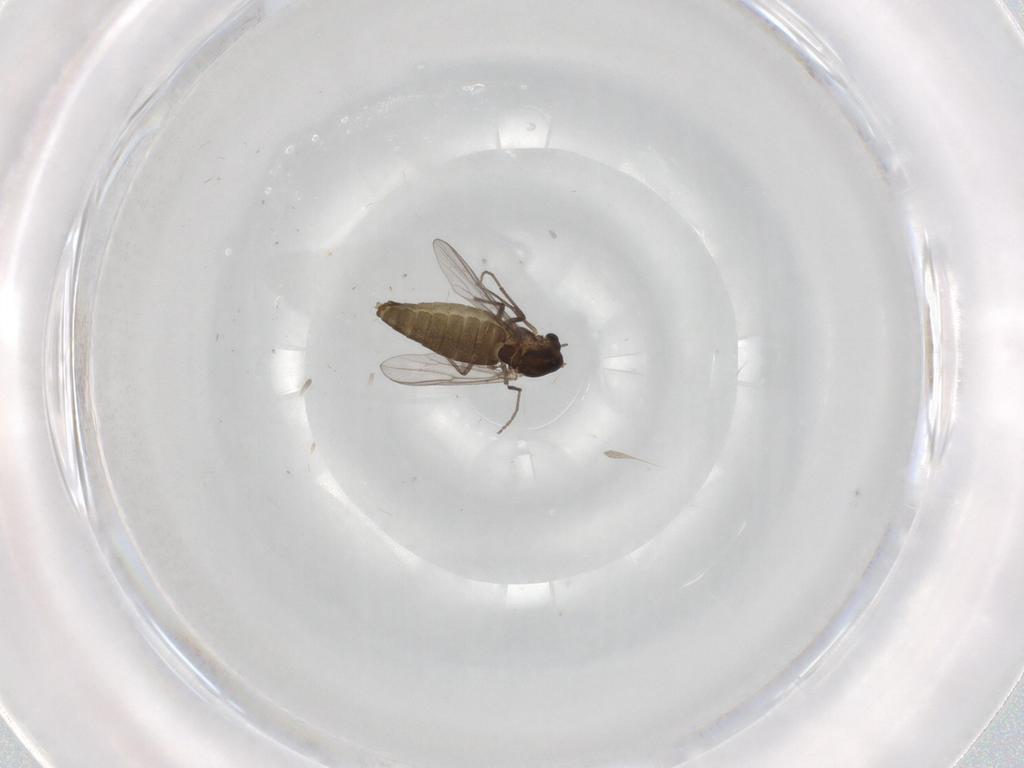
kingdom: Animalia
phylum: Arthropoda
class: Insecta
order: Diptera
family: Chironomidae
